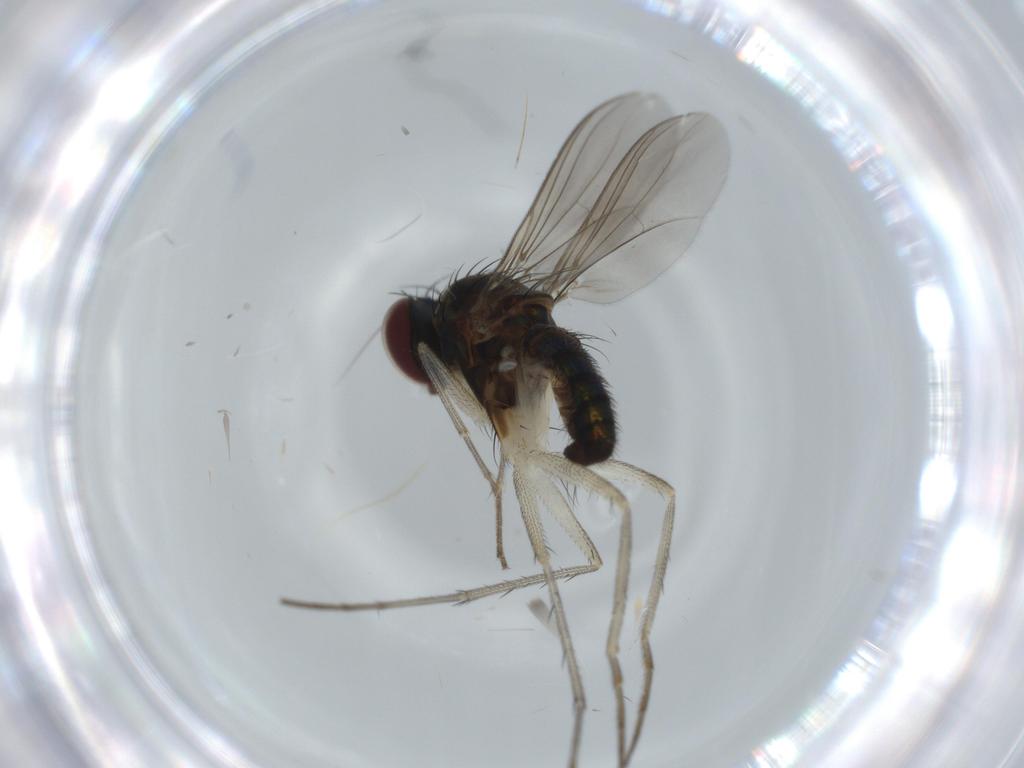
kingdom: Animalia
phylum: Arthropoda
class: Insecta
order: Diptera
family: Dolichopodidae
